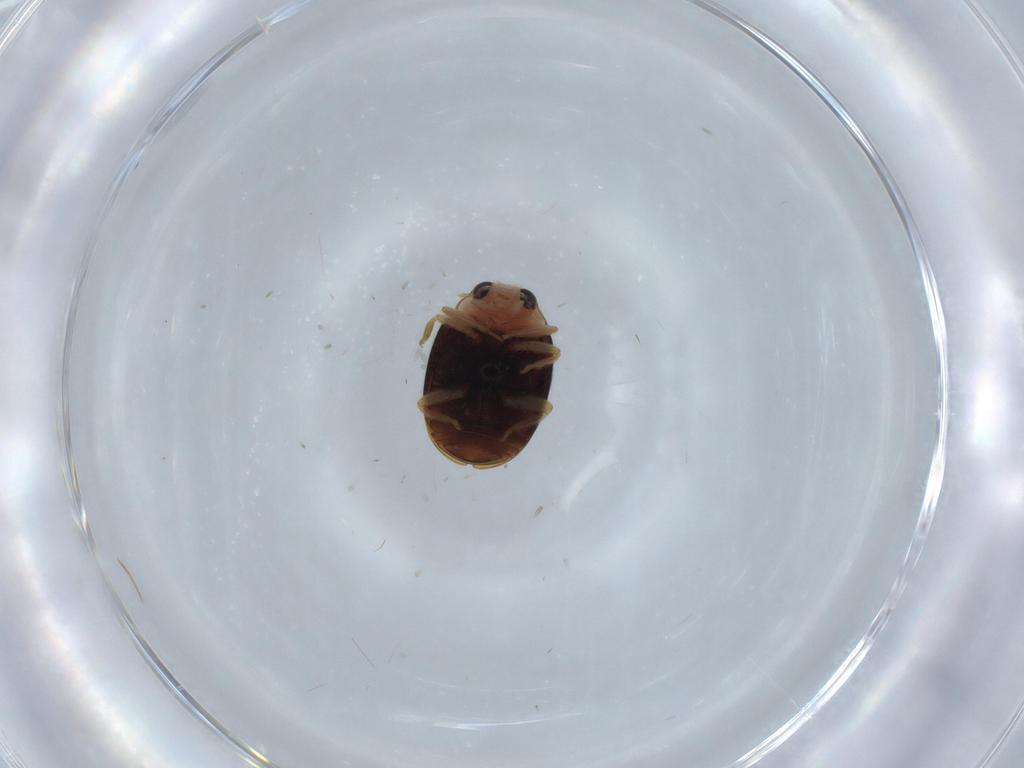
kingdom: Animalia
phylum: Arthropoda
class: Insecta
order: Coleoptera
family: Coccinellidae
